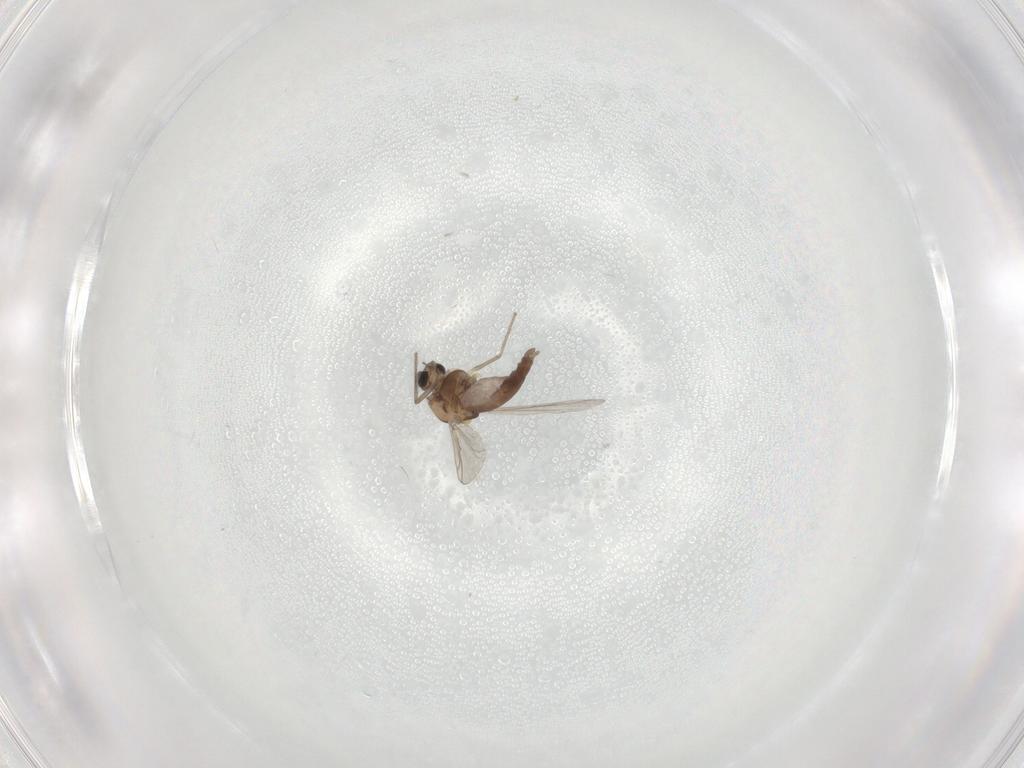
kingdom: Animalia
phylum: Arthropoda
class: Insecta
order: Diptera
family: Chironomidae
